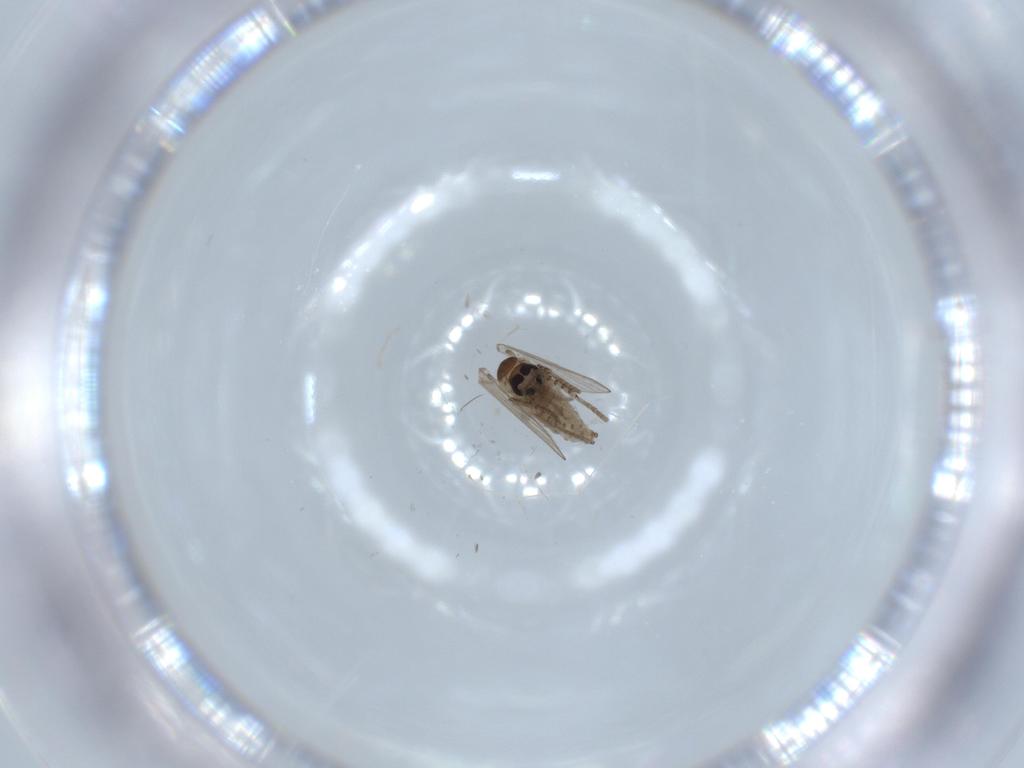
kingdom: Animalia
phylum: Arthropoda
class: Insecta
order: Diptera
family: Psychodidae
